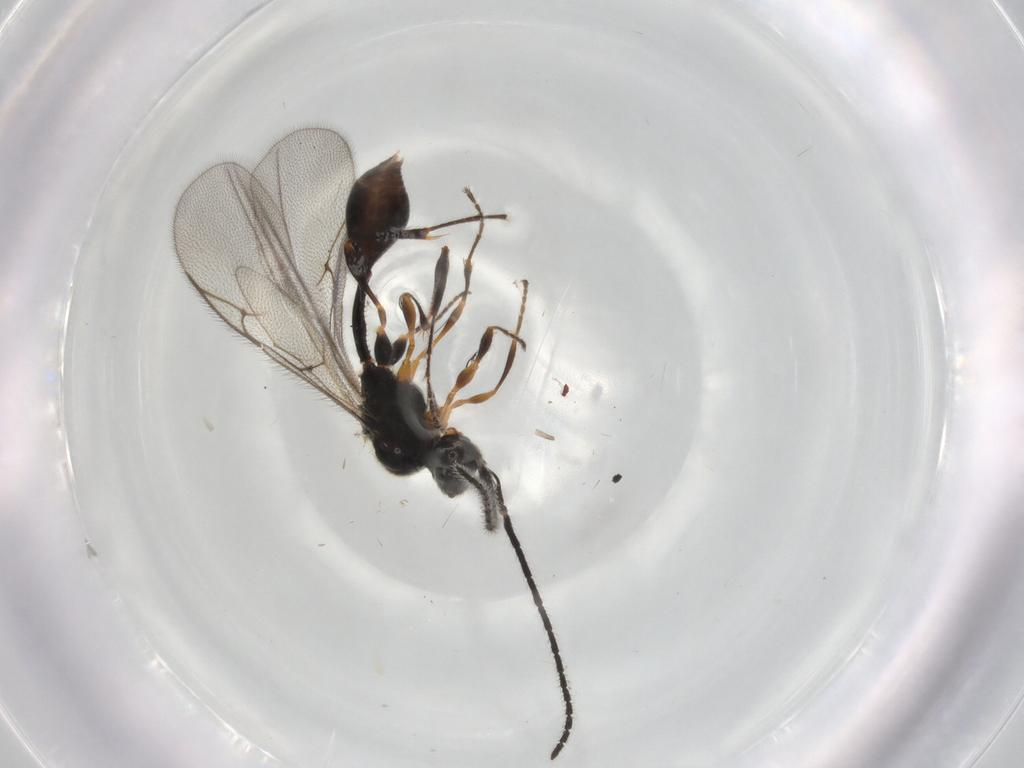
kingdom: Animalia
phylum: Arthropoda
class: Insecta
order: Hymenoptera
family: Diapriidae
